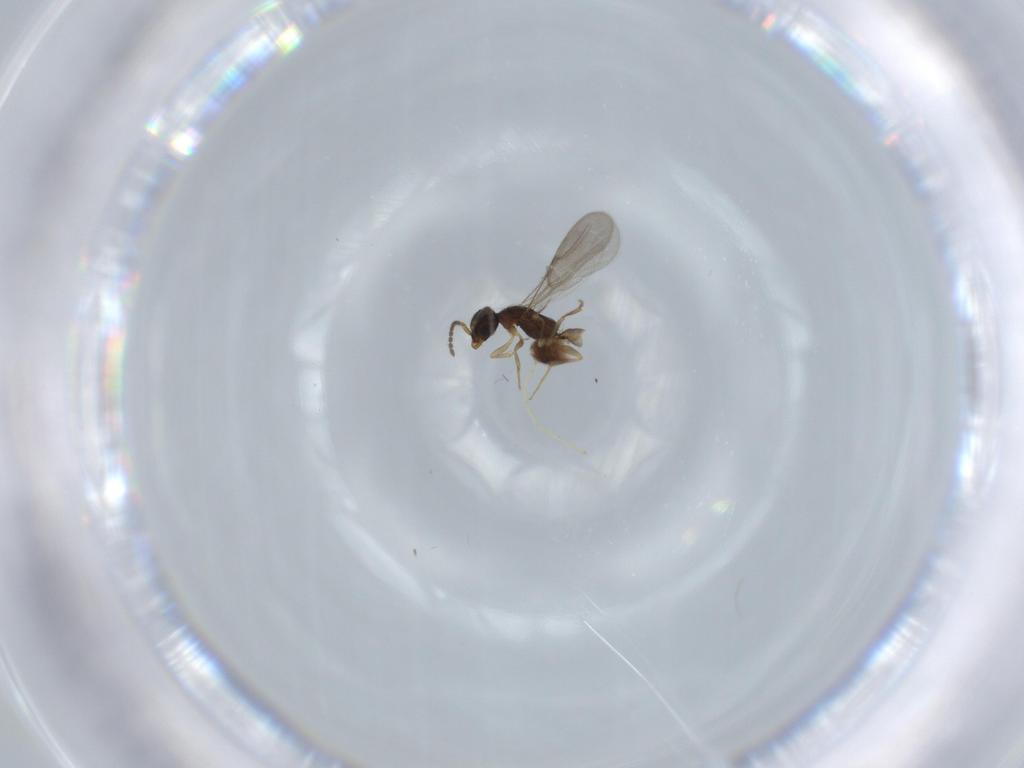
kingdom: Animalia
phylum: Arthropoda
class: Insecta
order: Hymenoptera
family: Bethylidae
